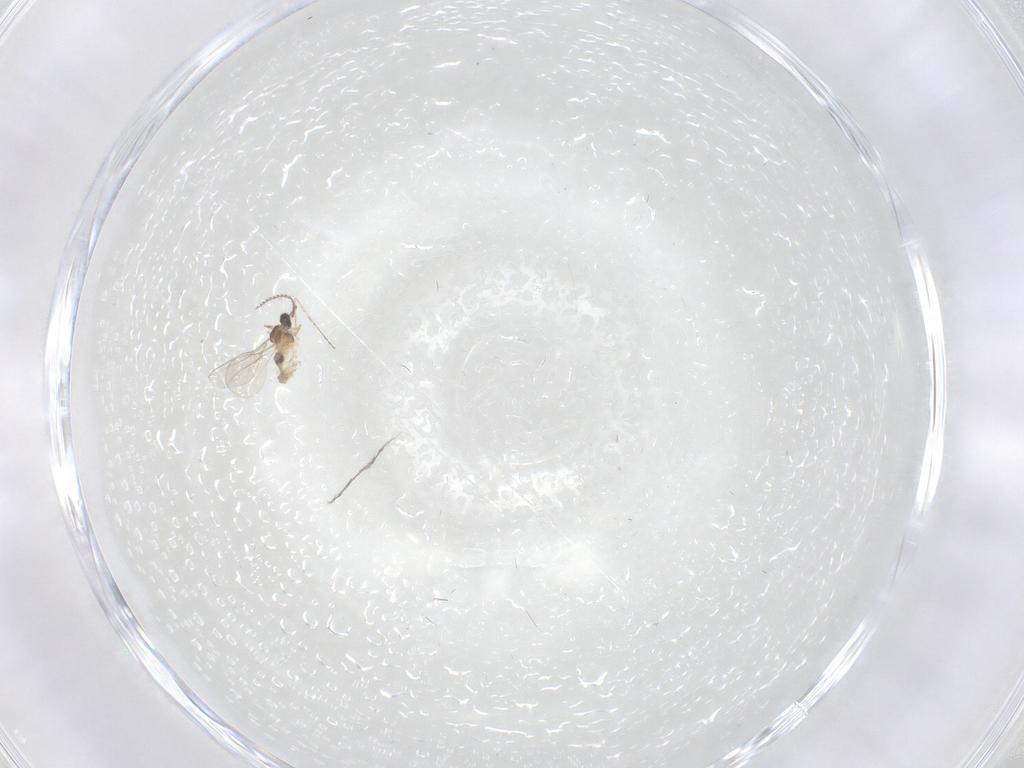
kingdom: Animalia
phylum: Arthropoda
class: Insecta
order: Diptera
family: Cecidomyiidae
